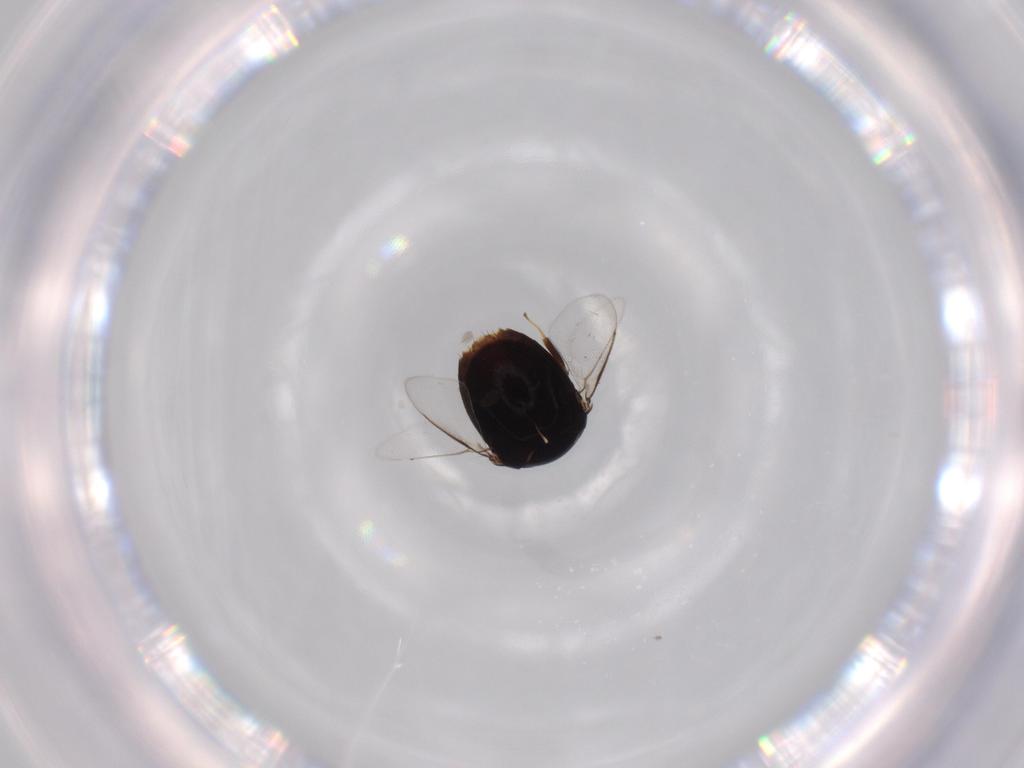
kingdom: Animalia
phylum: Arthropoda
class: Insecta
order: Coleoptera
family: Chrysomelidae
